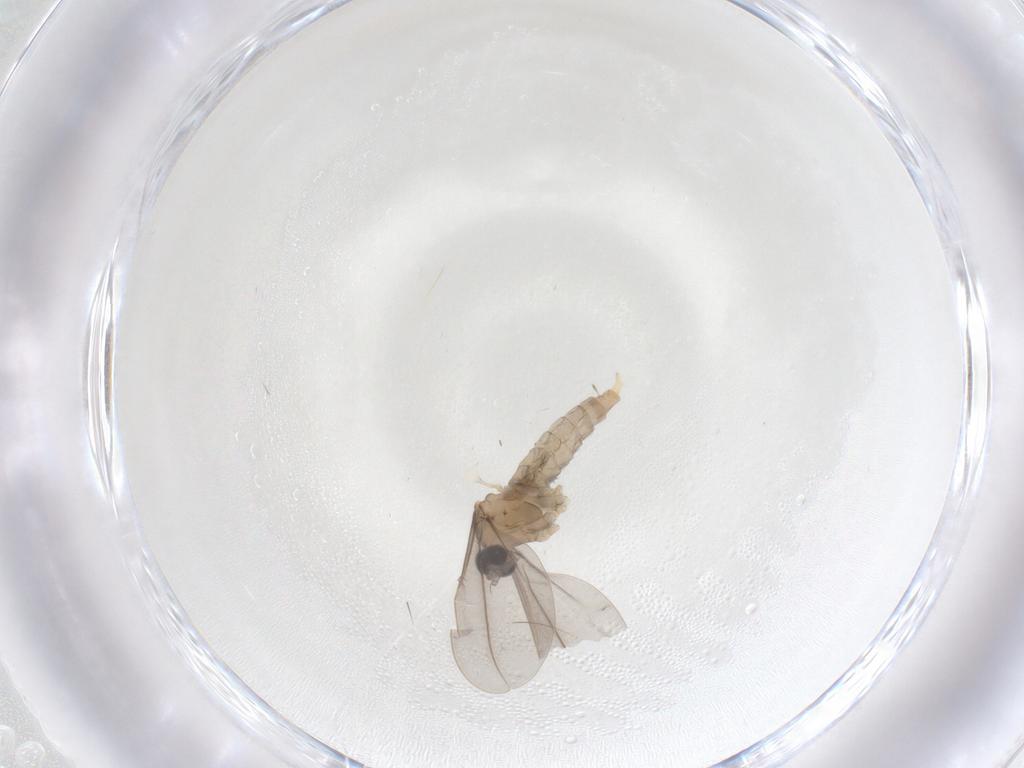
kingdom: Animalia
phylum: Arthropoda
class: Insecta
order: Diptera
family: Cecidomyiidae
